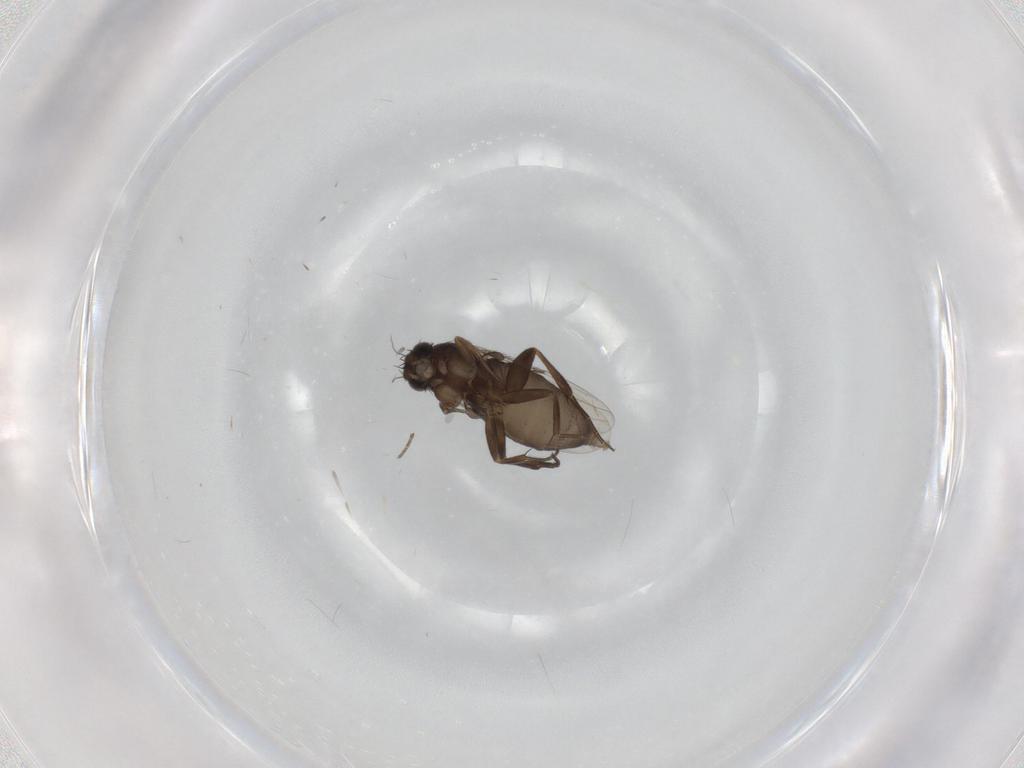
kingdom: Animalia
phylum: Arthropoda
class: Insecta
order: Diptera
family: Phoridae
